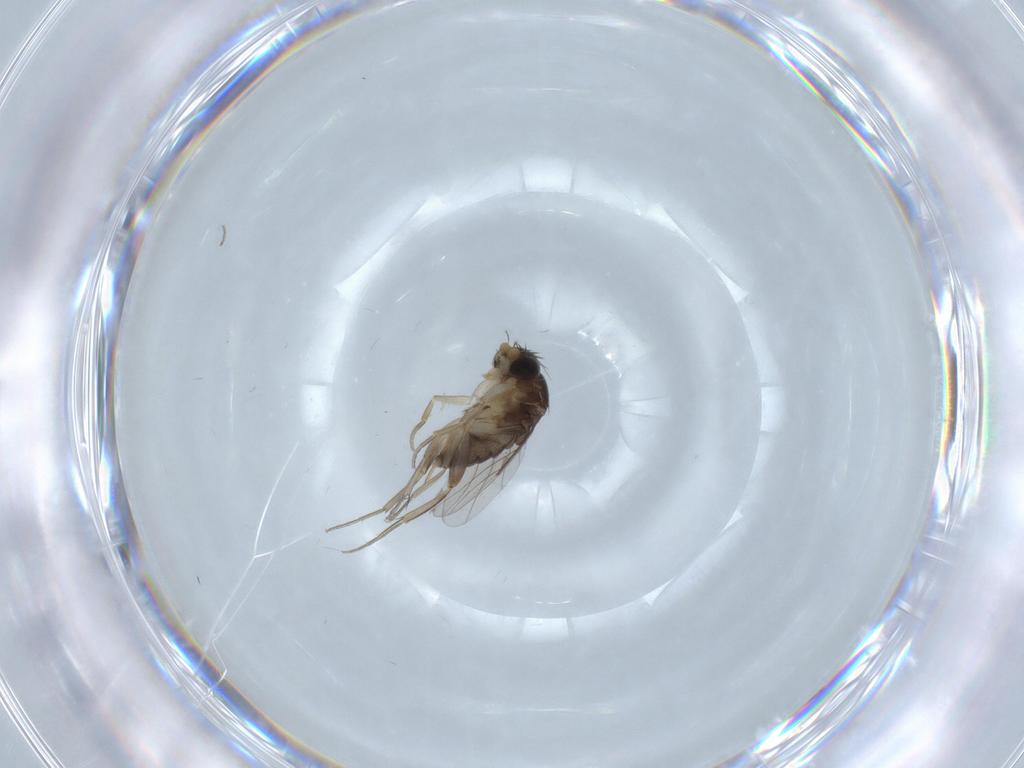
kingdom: Animalia
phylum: Arthropoda
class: Insecta
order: Diptera
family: Phoridae
